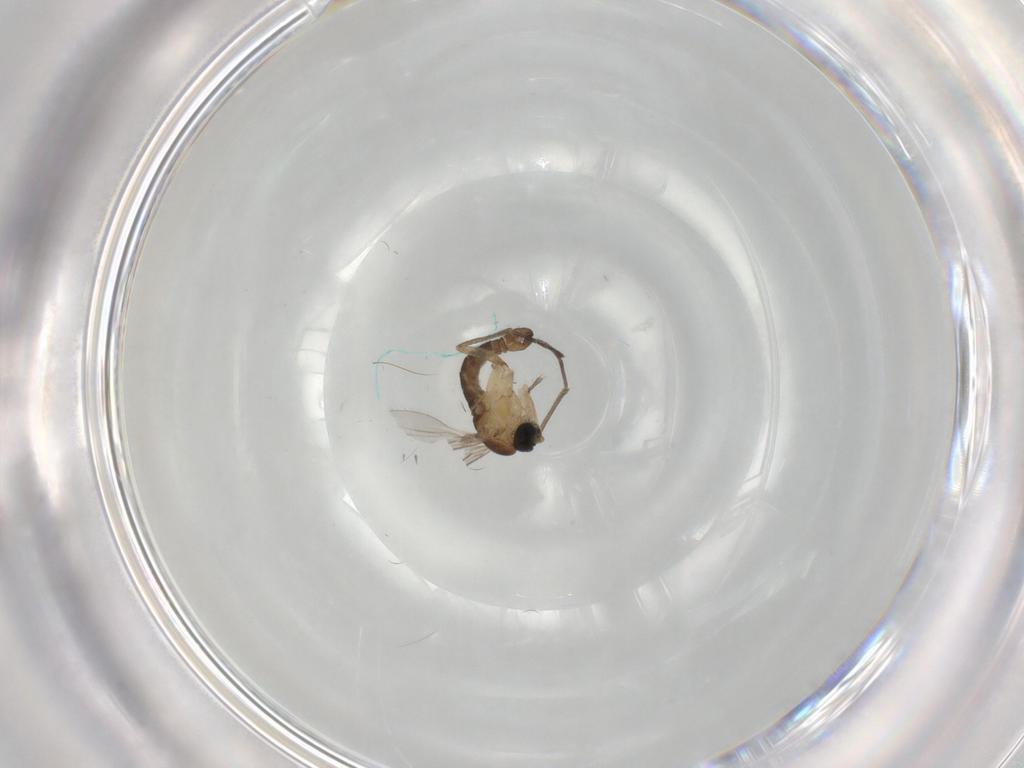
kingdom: Animalia
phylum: Arthropoda
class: Insecta
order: Diptera
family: Sciaridae
